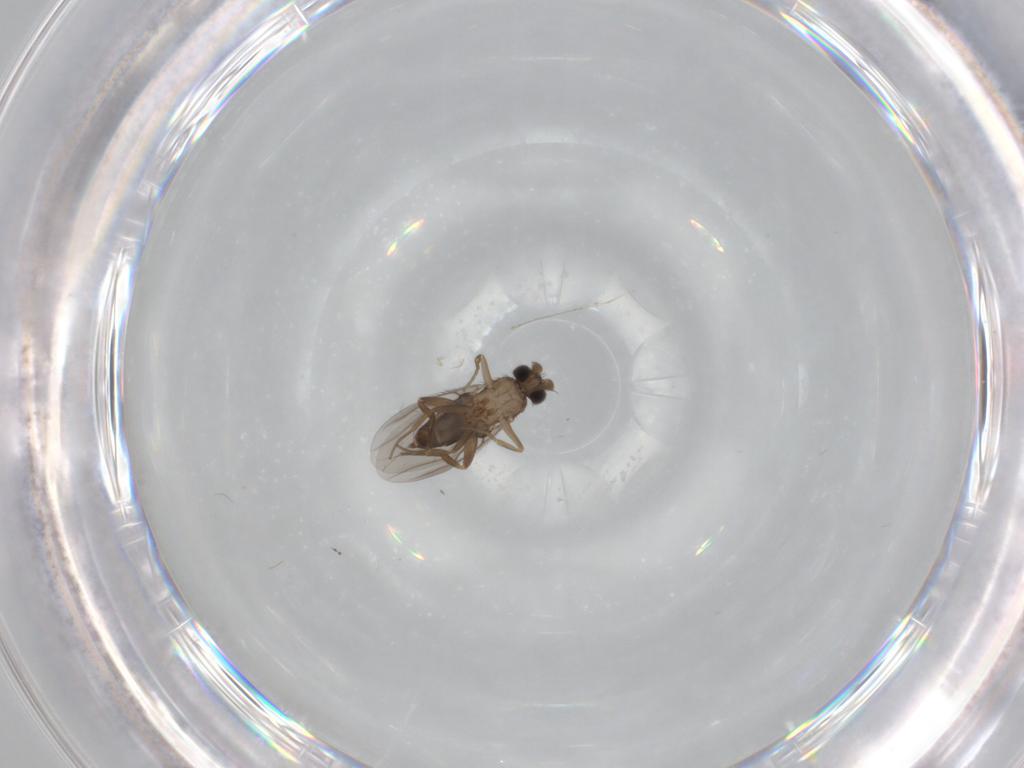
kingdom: Animalia
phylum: Arthropoda
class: Insecta
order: Diptera
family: Phoridae
